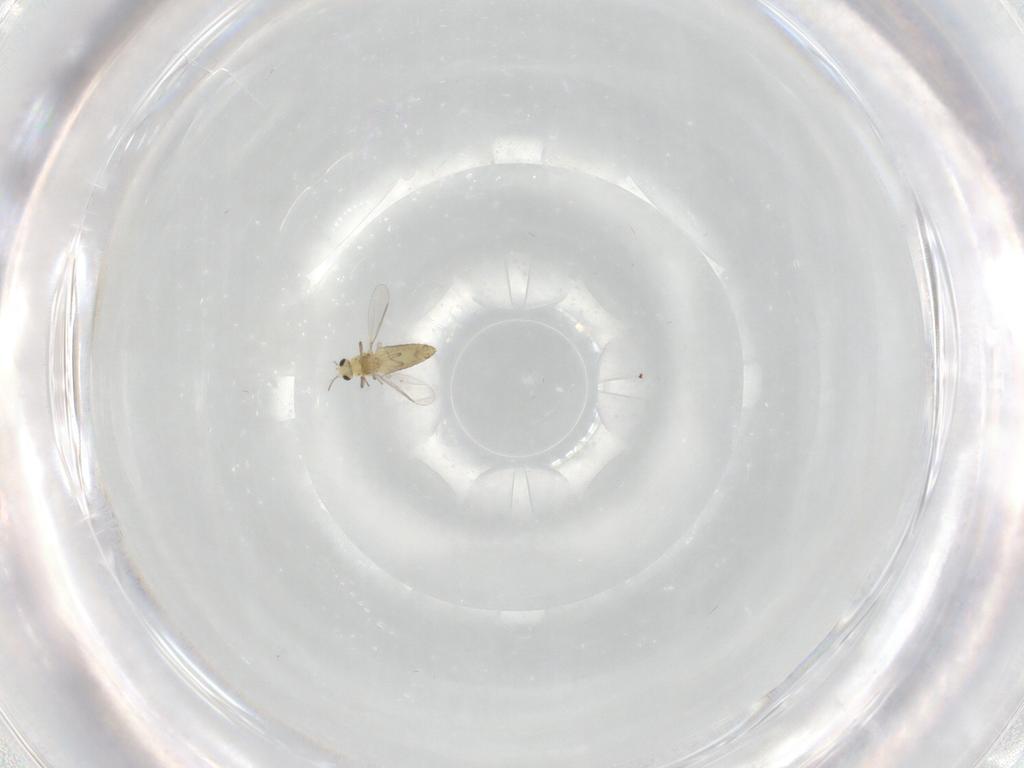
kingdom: Animalia
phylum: Arthropoda
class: Insecta
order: Diptera
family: Chironomidae
